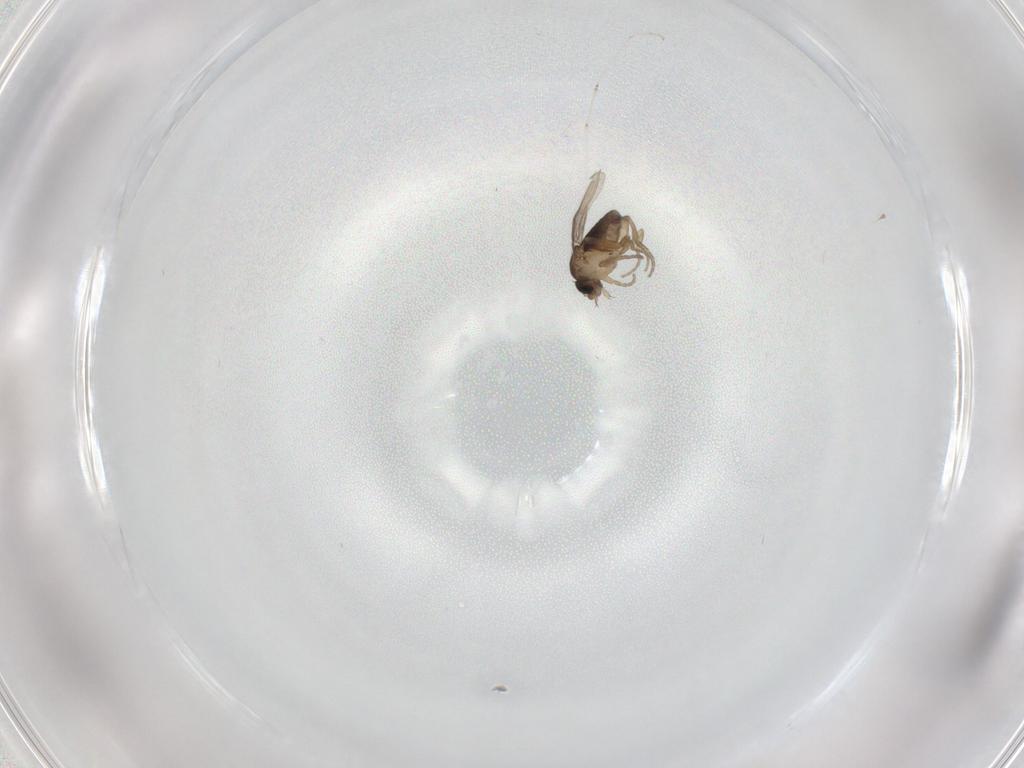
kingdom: Animalia
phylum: Arthropoda
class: Insecta
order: Diptera
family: Phoridae
